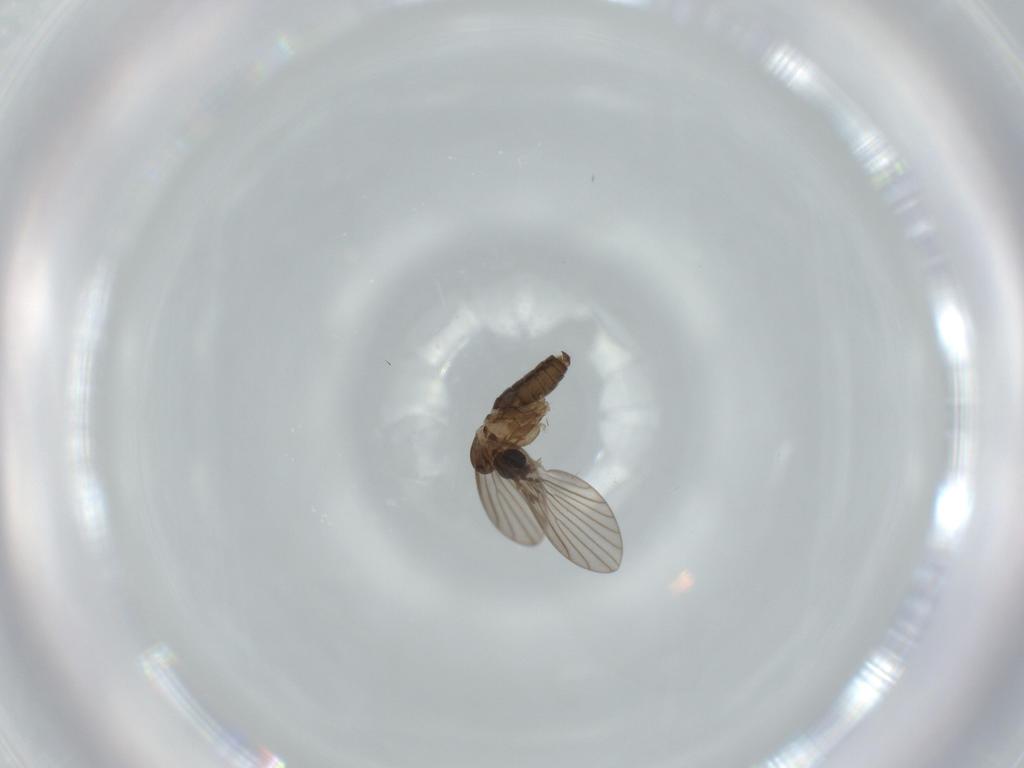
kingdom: Animalia
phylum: Arthropoda
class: Insecta
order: Diptera
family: Psychodidae
